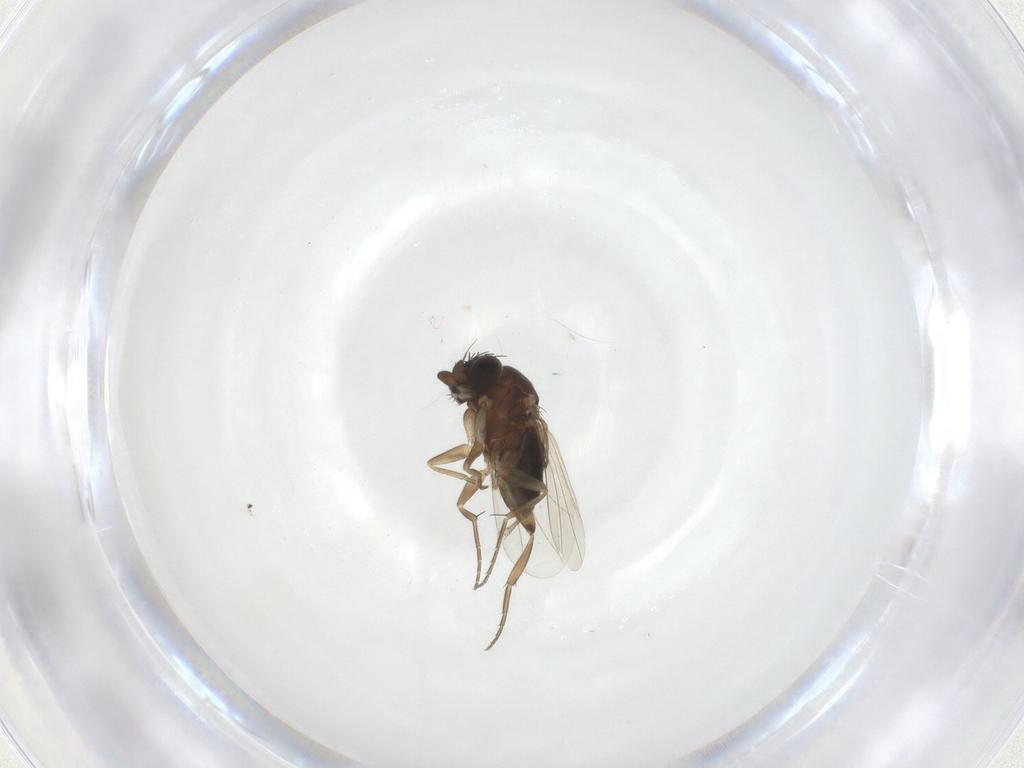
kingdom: Animalia
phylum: Arthropoda
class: Insecta
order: Diptera
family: Phoridae
